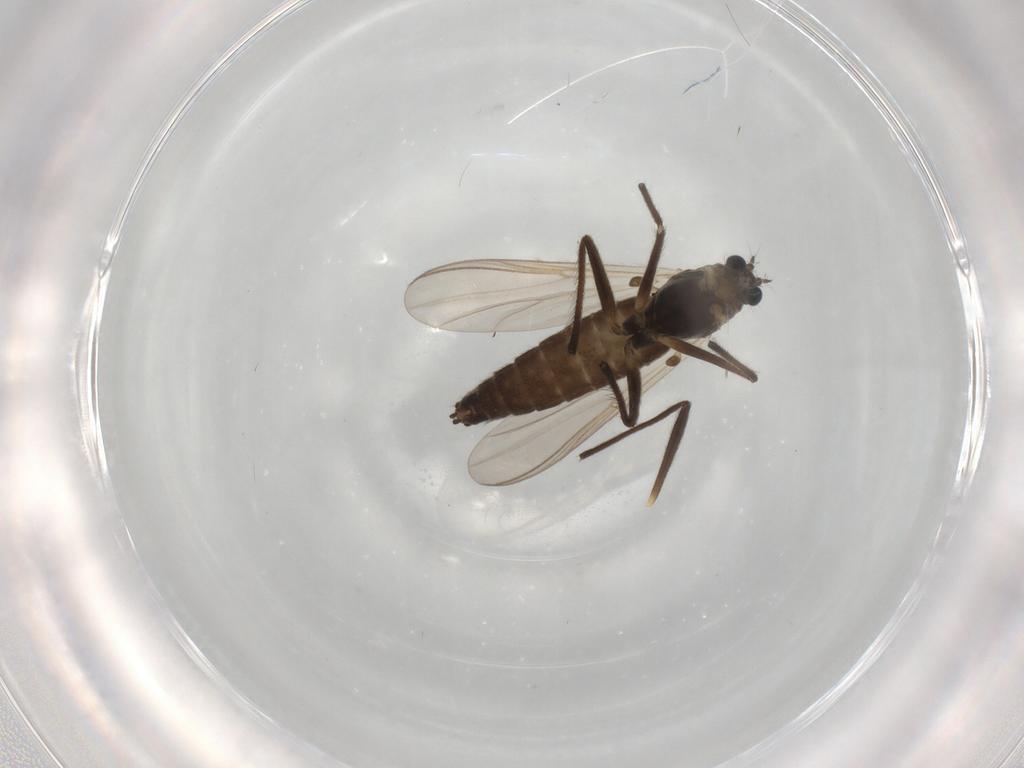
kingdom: Animalia
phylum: Arthropoda
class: Insecta
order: Diptera
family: Chironomidae
